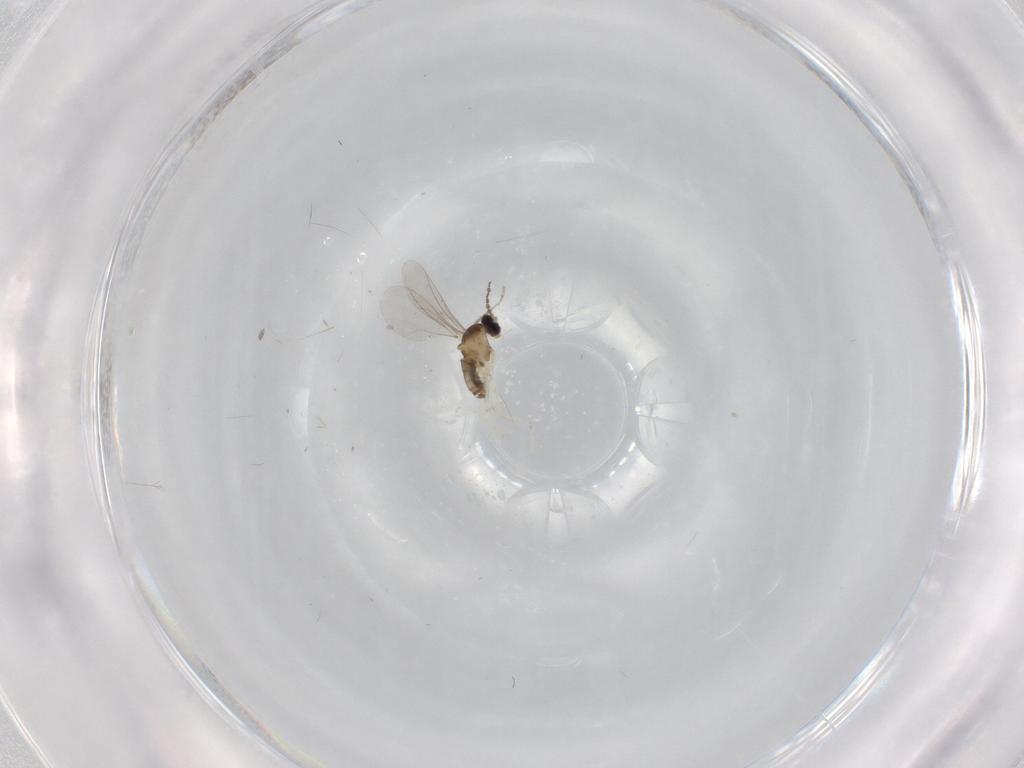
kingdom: Animalia
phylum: Arthropoda
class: Insecta
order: Diptera
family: Cecidomyiidae
